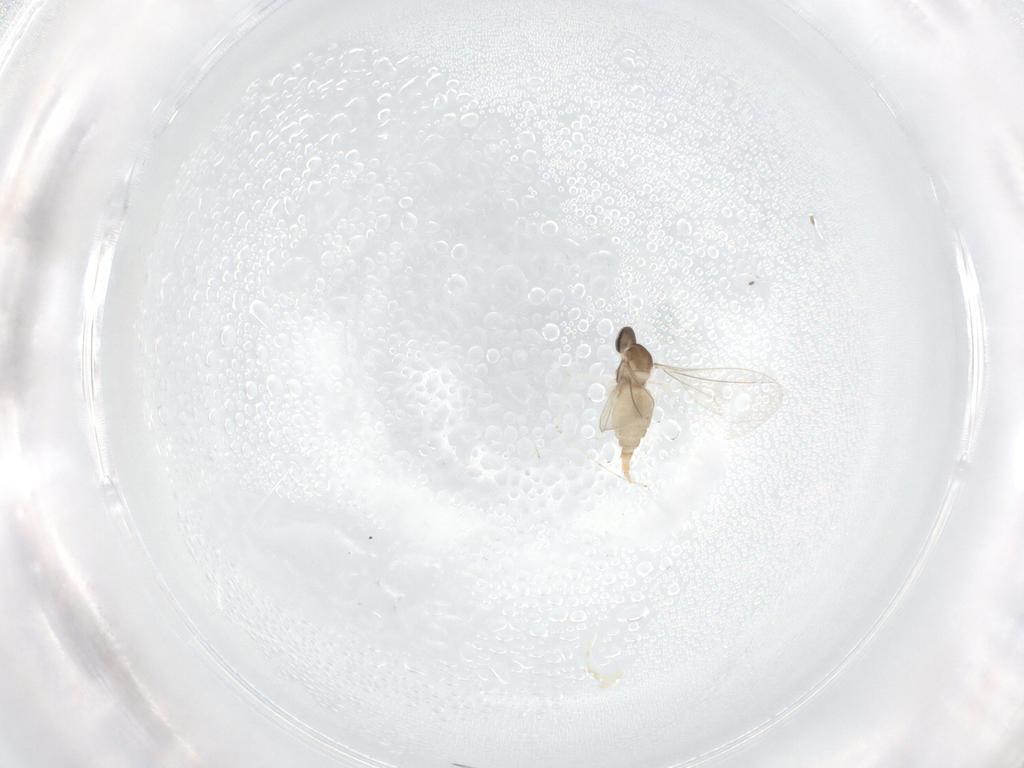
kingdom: Animalia
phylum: Arthropoda
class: Insecta
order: Diptera
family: Cecidomyiidae
